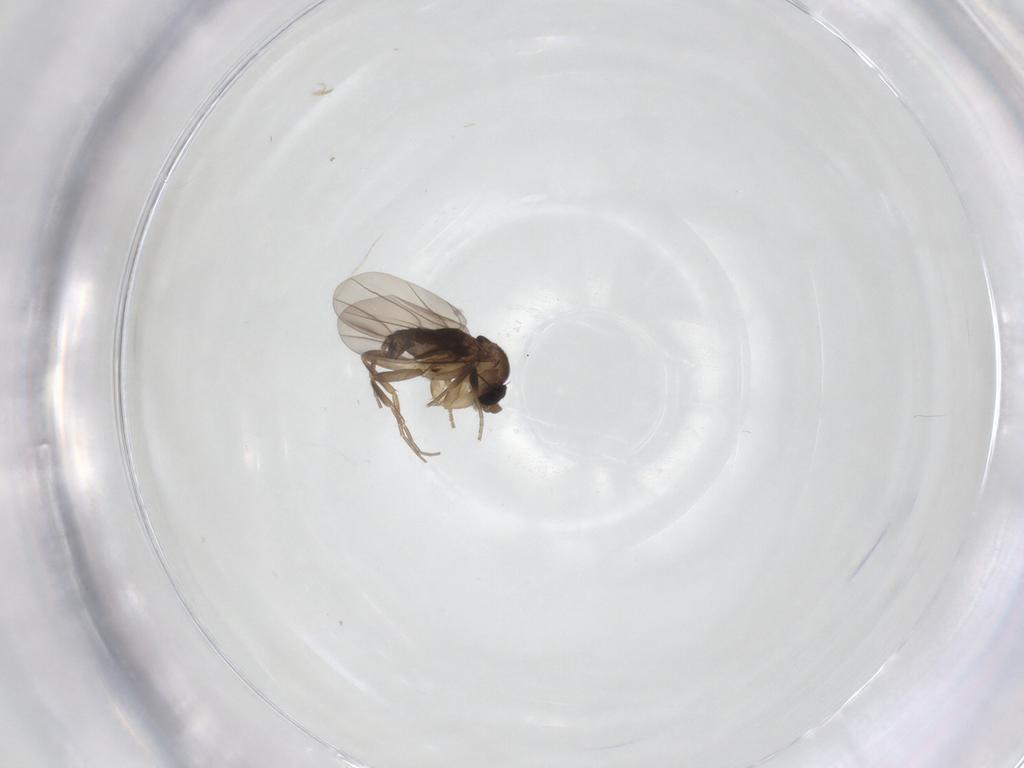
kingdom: Animalia
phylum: Arthropoda
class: Insecta
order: Diptera
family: Phoridae
